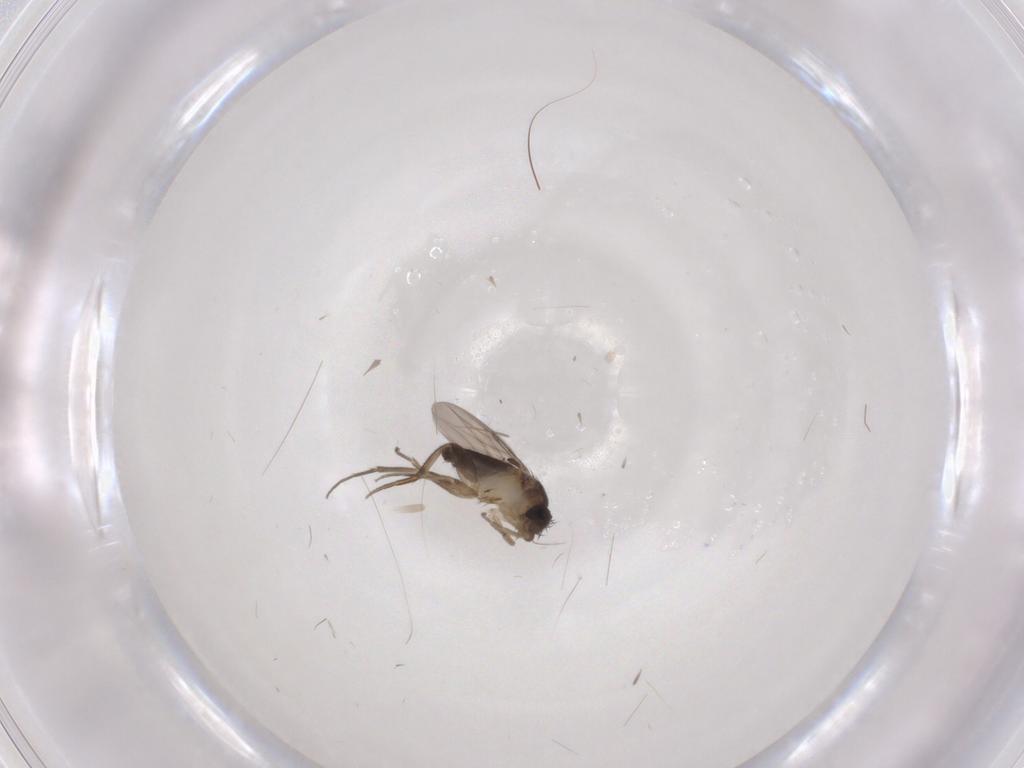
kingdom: Animalia
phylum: Arthropoda
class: Insecta
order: Diptera
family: Phoridae
